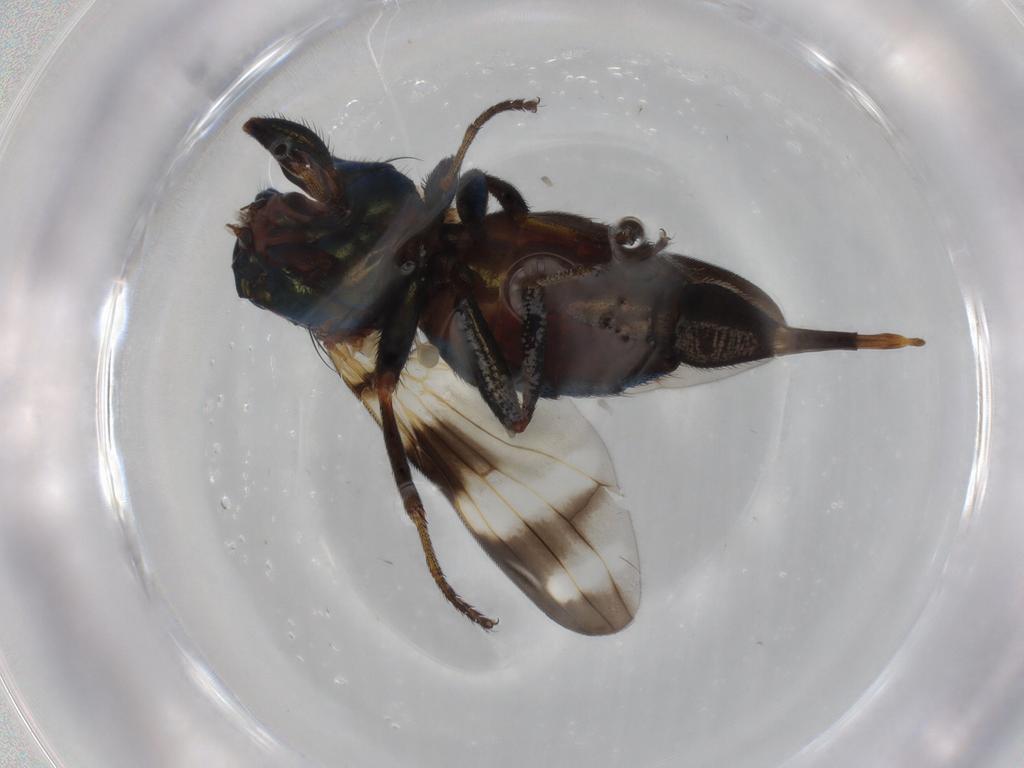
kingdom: Animalia
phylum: Arthropoda
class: Insecta
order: Diptera
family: Ulidiidae
